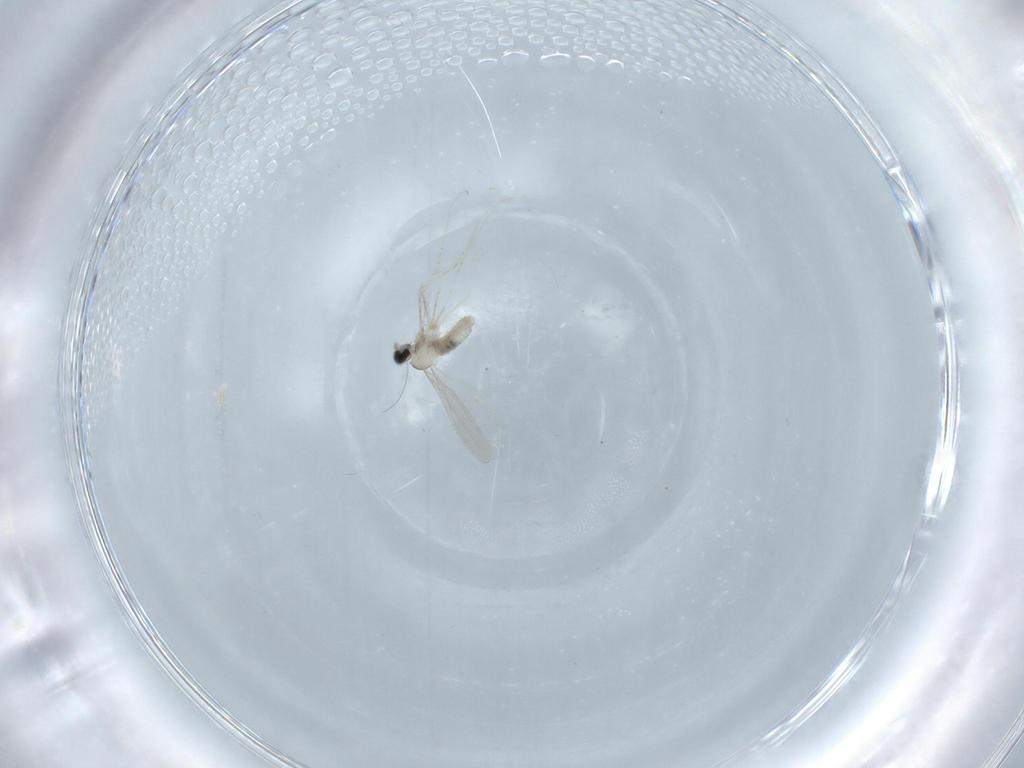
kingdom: Animalia
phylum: Arthropoda
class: Insecta
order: Diptera
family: Cecidomyiidae
